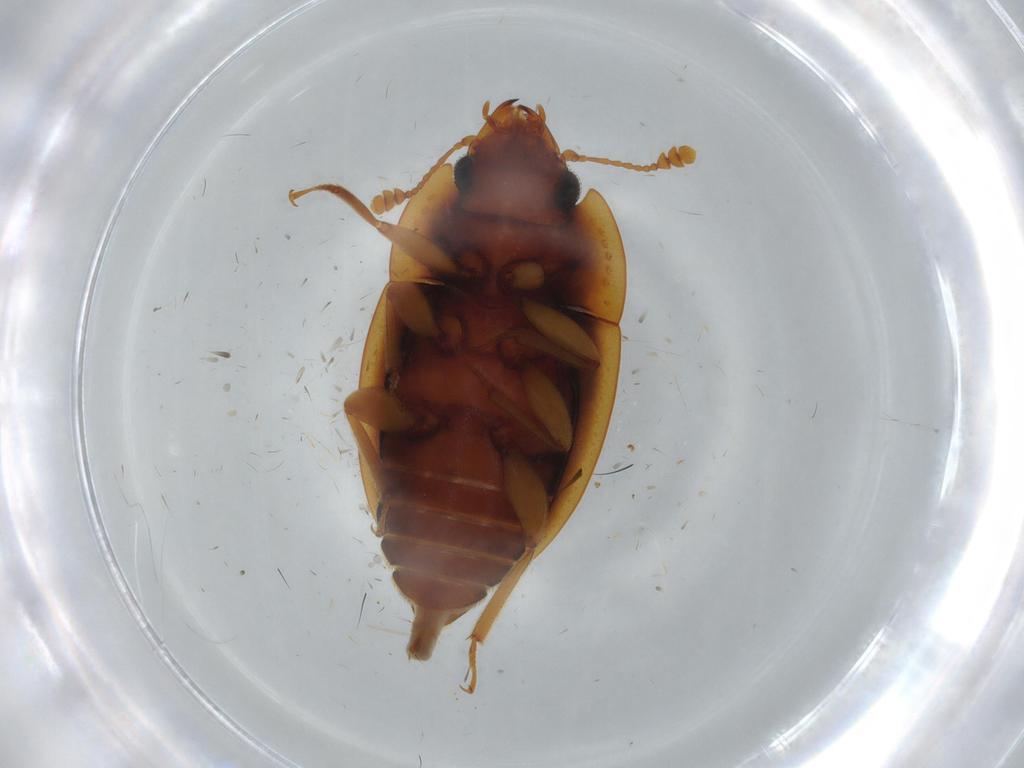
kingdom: Animalia
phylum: Arthropoda
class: Insecta
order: Coleoptera
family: Chrysomelidae
